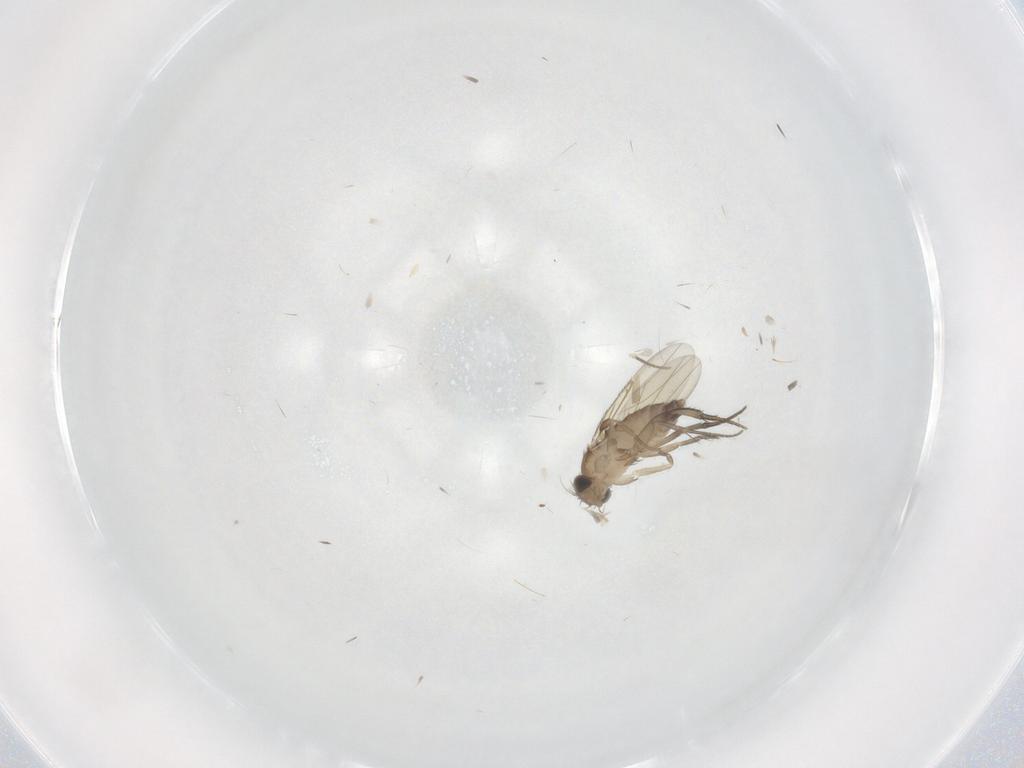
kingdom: Animalia
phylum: Arthropoda
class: Insecta
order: Diptera
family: Phoridae
